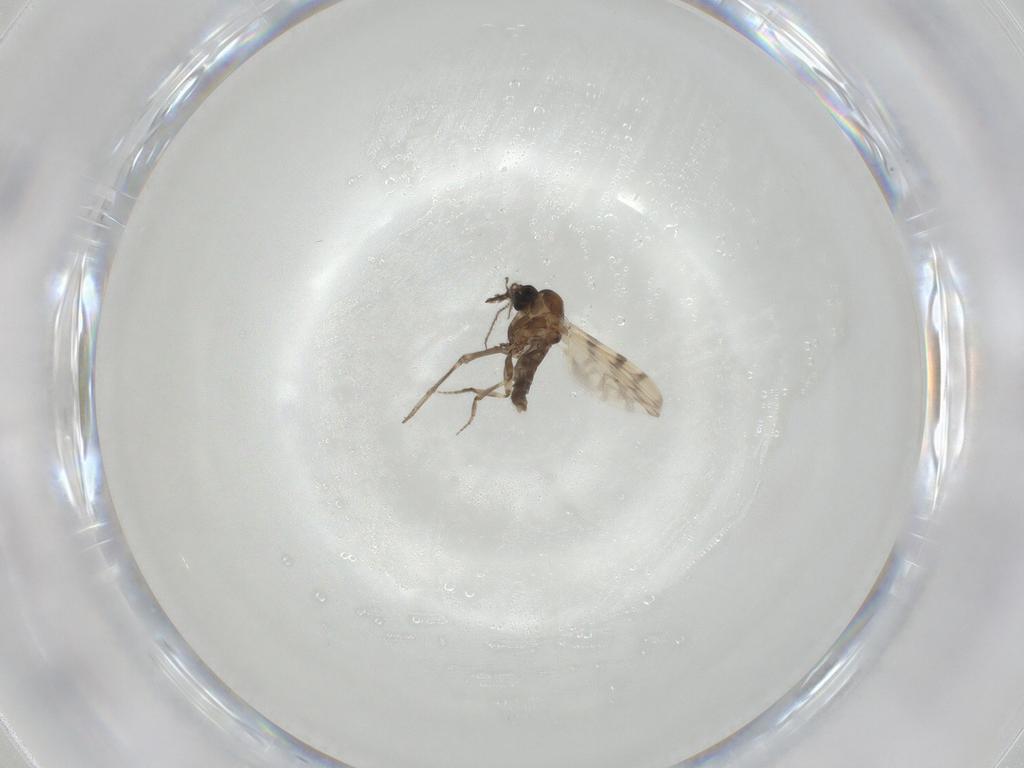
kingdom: Animalia
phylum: Arthropoda
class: Insecta
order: Diptera
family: Ceratopogonidae
